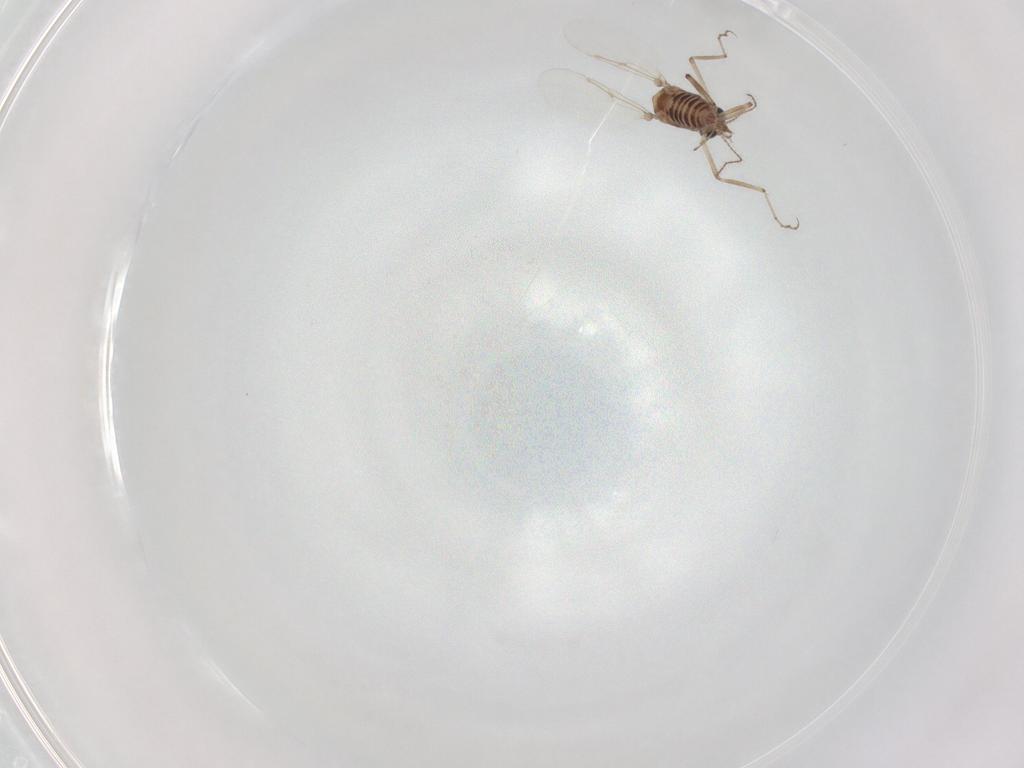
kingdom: Animalia
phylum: Arthropoda
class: Insecta
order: Diptera
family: Ceratopogonidae
